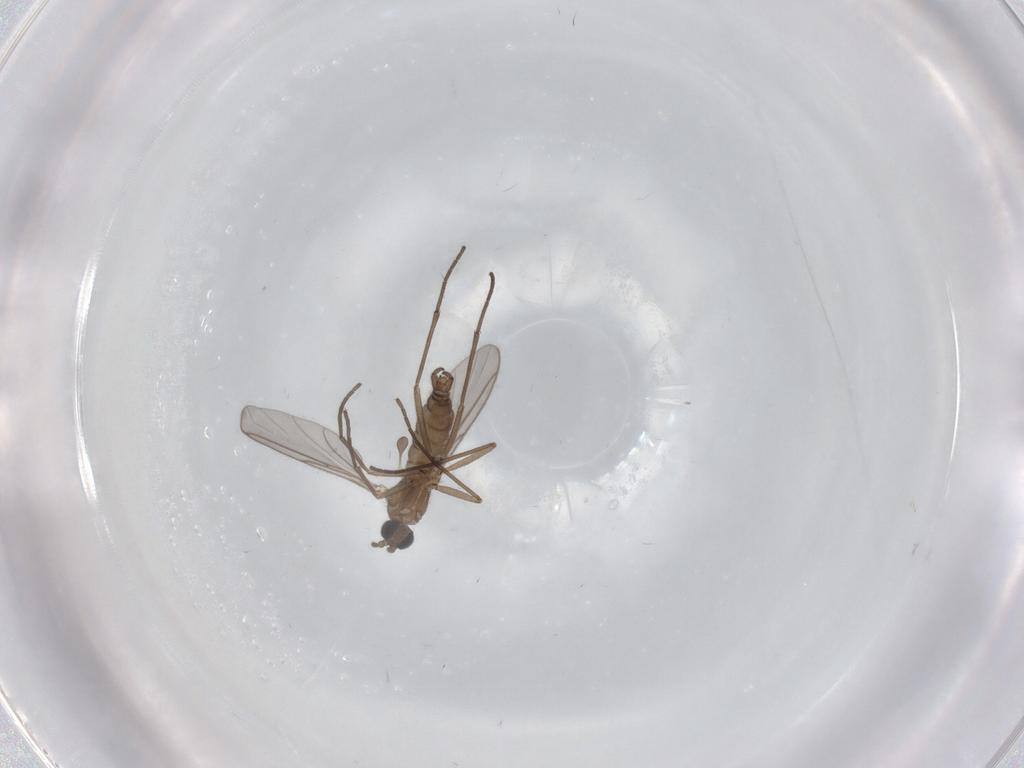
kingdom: Animalia
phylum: Arthropoda
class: Insecta
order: Diptera
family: Sciaridae
